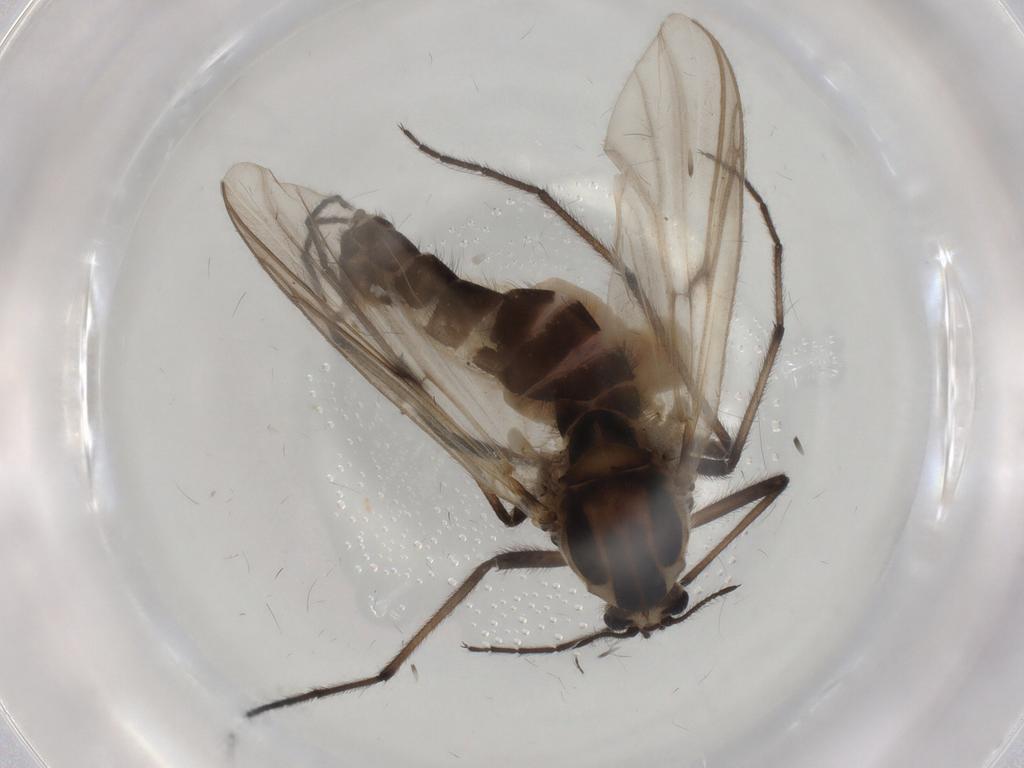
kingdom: Animalia
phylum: Arthropoda
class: Insecta
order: Diptera
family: Chironomidae
